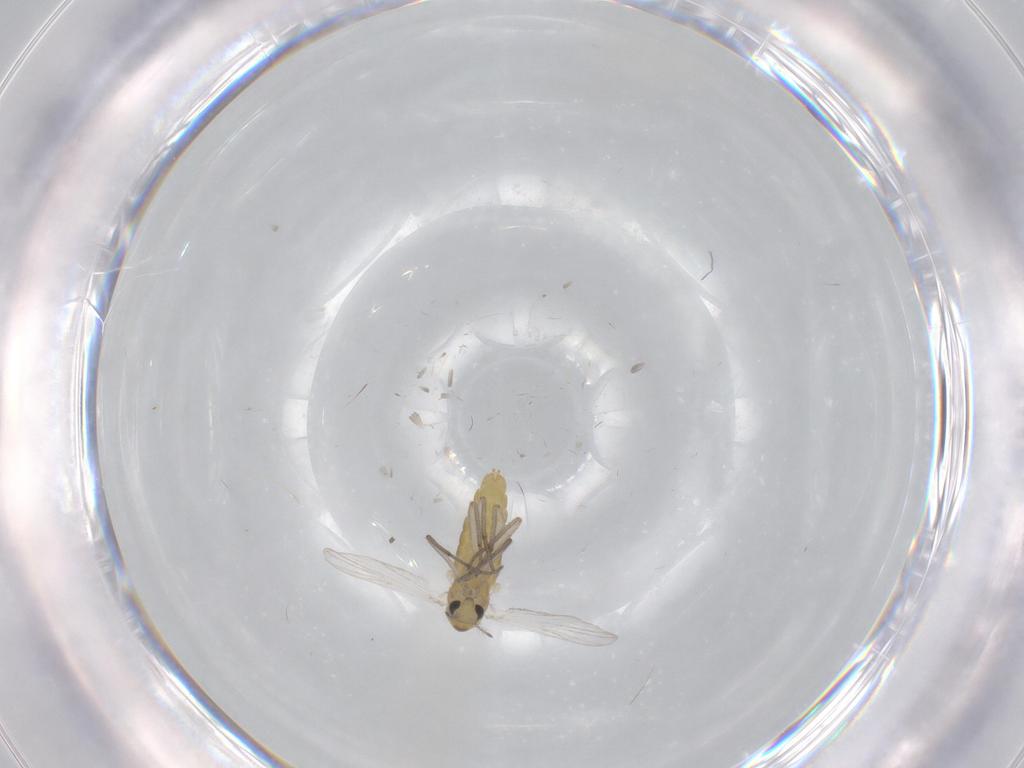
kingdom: Animalia
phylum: Arthropoda
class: Insecta
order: Diptera
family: Chironomidae
